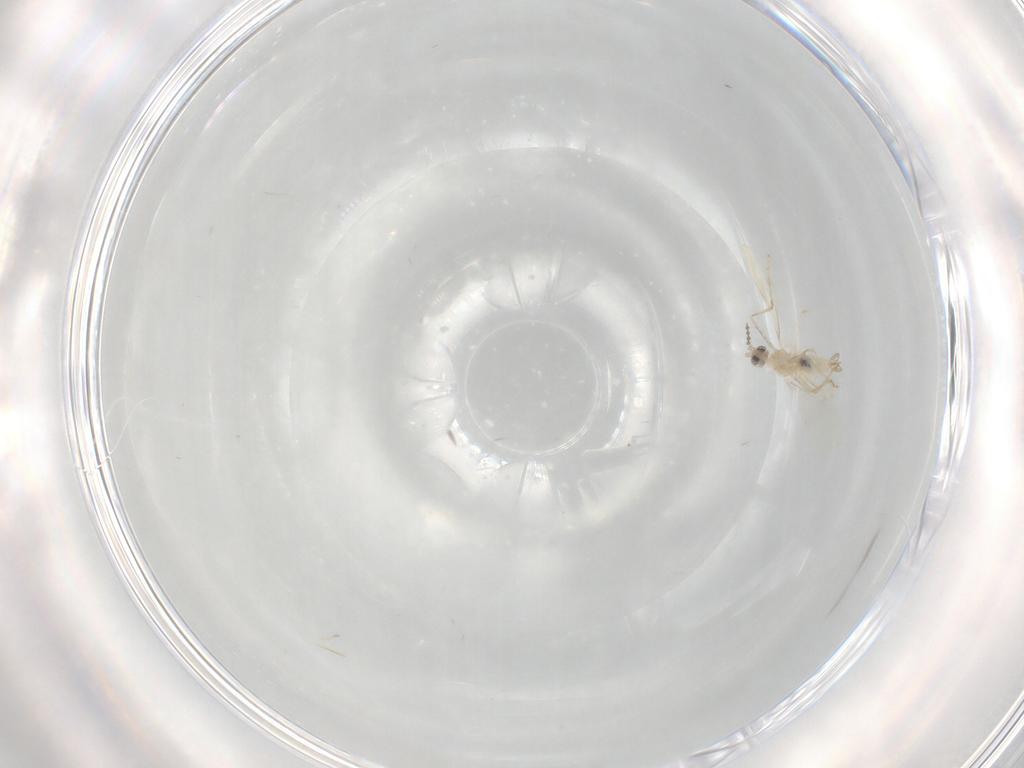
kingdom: Animalia
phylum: Arthropoda
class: Insecta
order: Diptera
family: Cecidomyiidae
